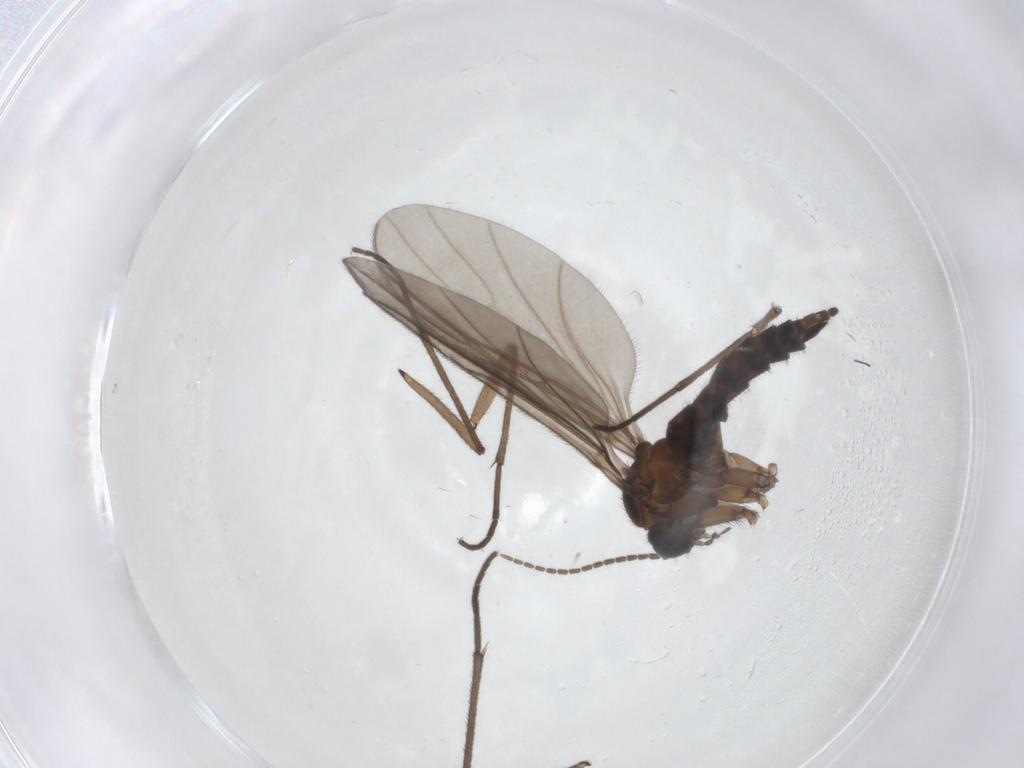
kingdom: Animalia
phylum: Arthropoda
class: Insecta
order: Diptera
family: Sciaridae
